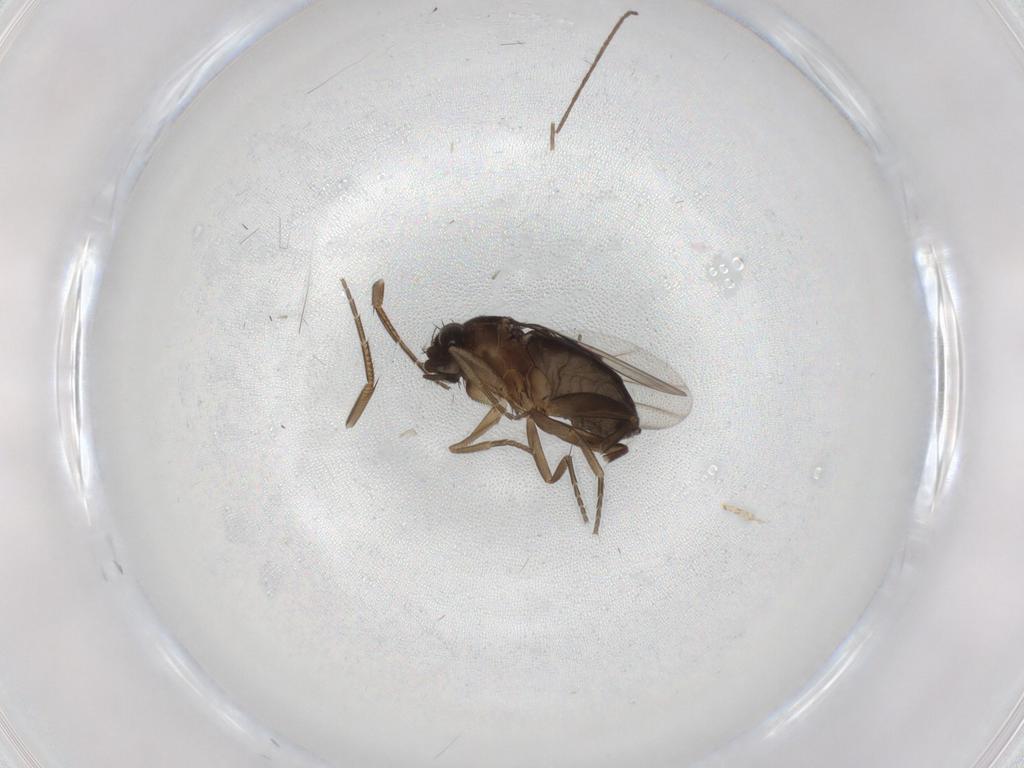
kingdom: Animalia
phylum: Arthropoda
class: Insecta
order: Diptera
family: Phoridae
